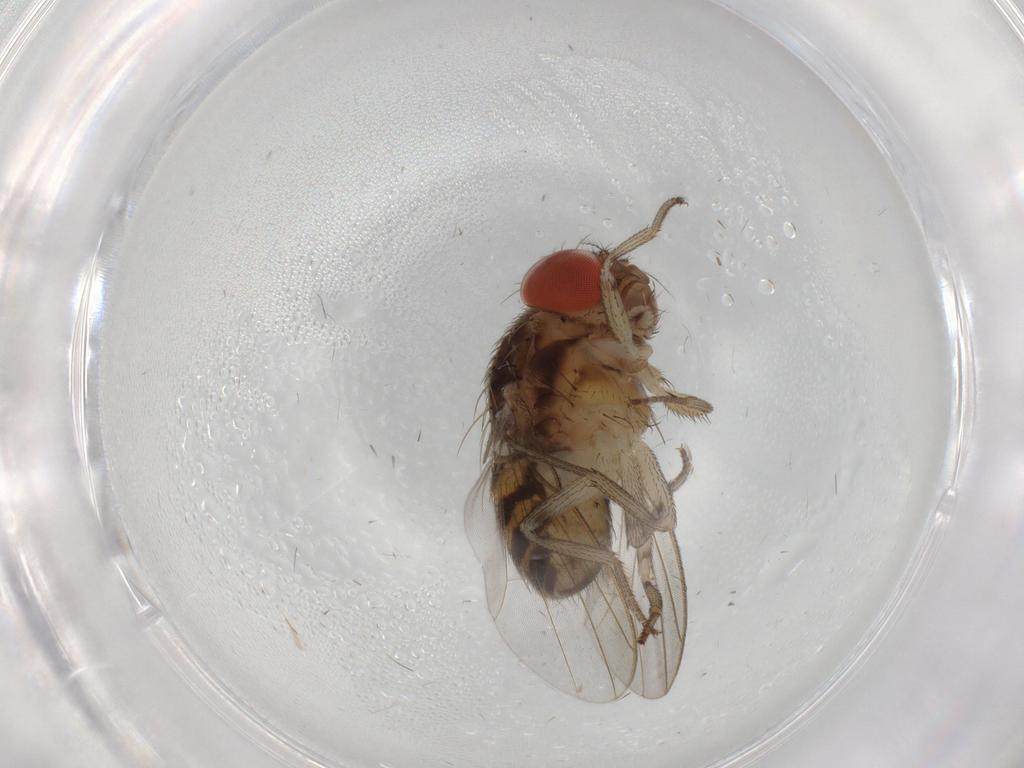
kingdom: Animalia
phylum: Arthropoda
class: Insecta
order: Diptera
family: Drosophilidae
